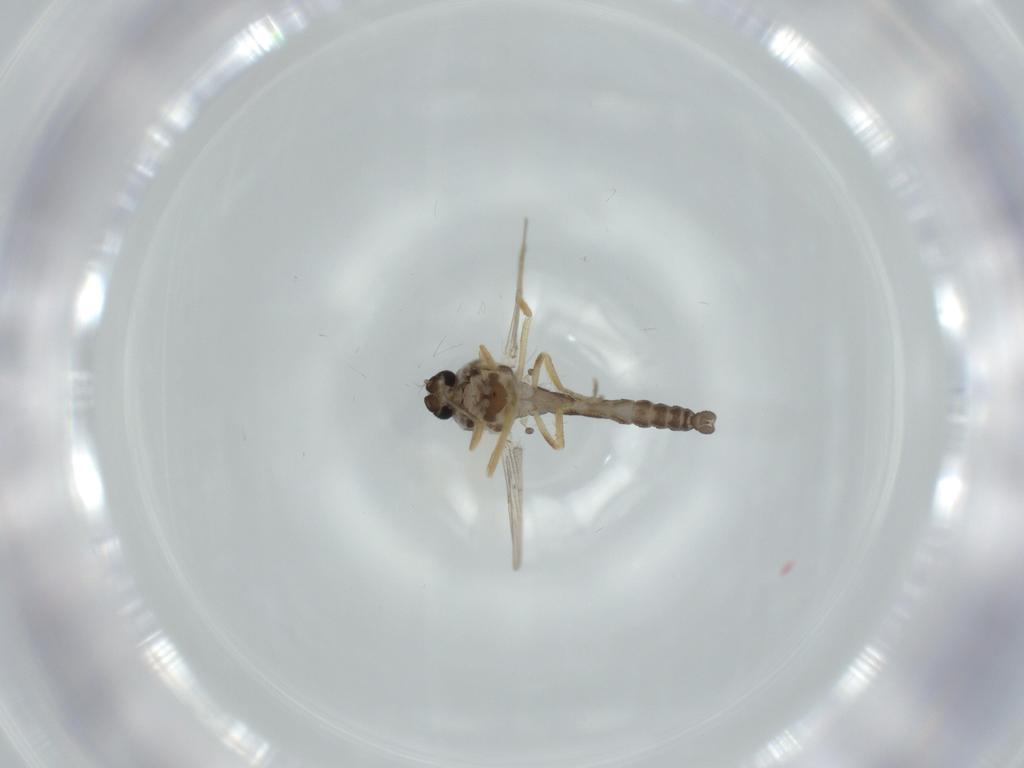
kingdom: Animalia
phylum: Arthropoda
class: Insecta
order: Diptera
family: Ceratopogonidae
